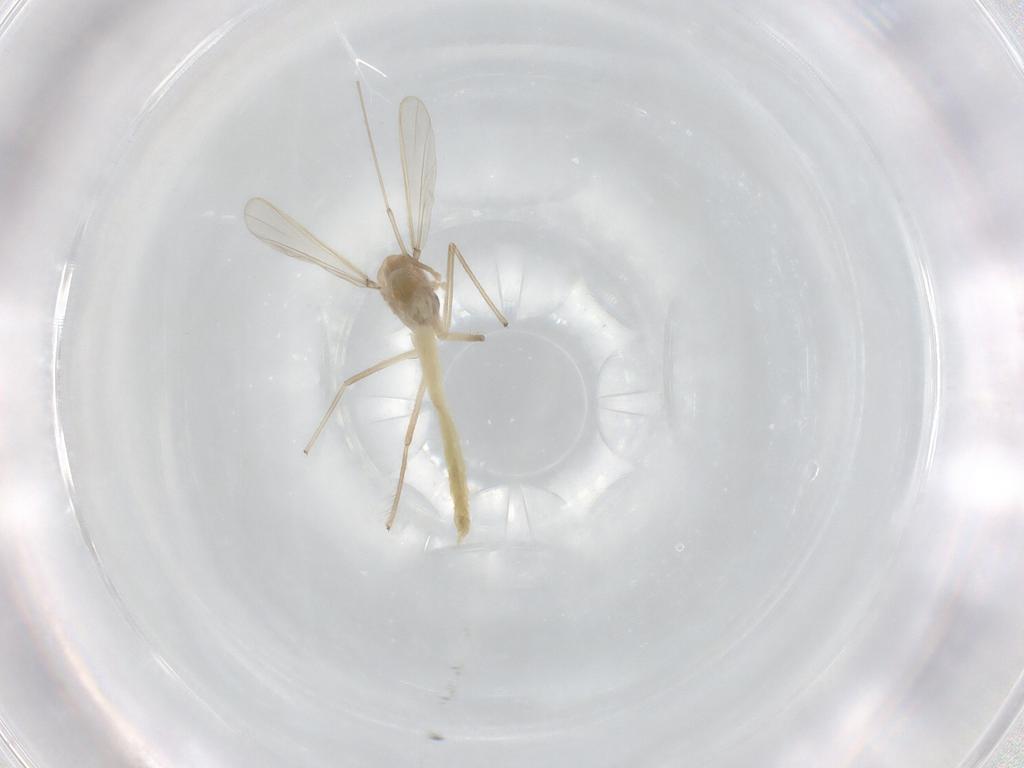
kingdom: Animalia
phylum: Arthropoda
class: Insecta
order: Diptera
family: Chironomidae
